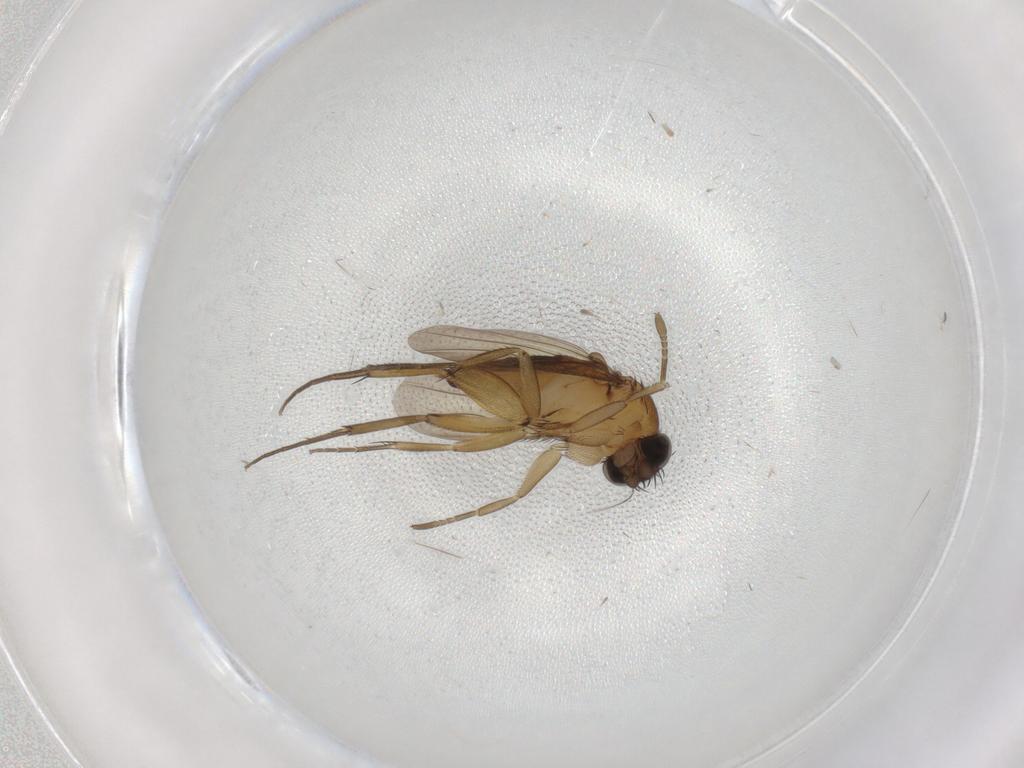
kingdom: Animalia
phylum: Arthropoda
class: Insecta
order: Diptera
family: Phoridae
